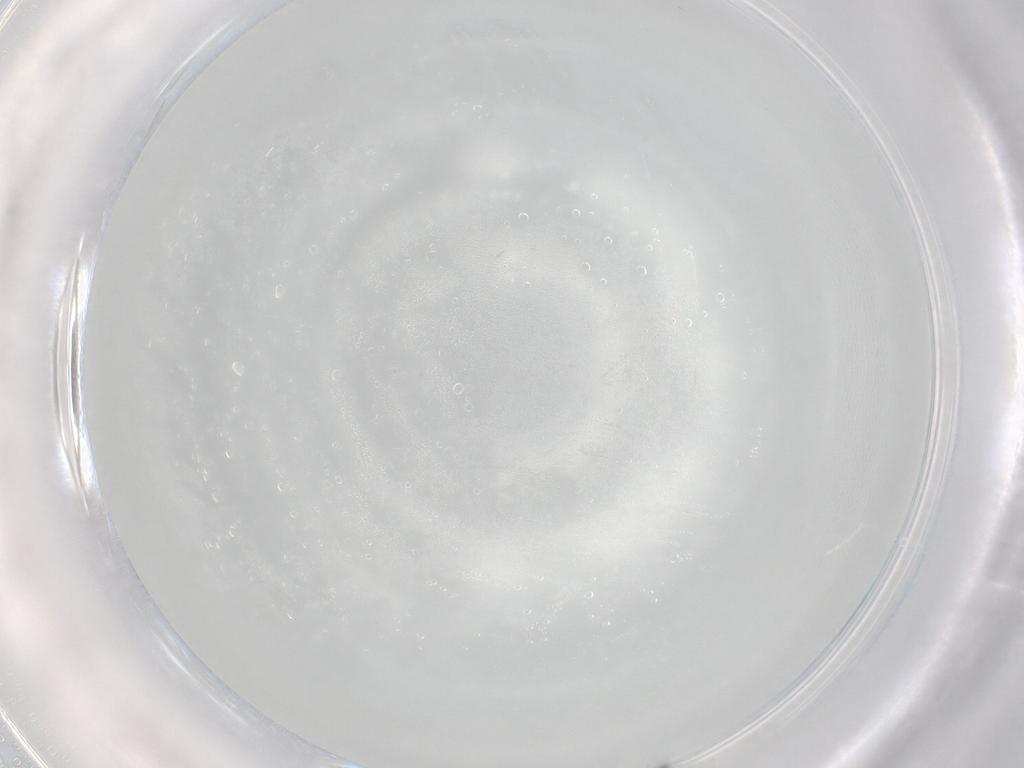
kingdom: Animalia
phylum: Arthropoda
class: Insecta
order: Diptera
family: Cecidomyiidae
